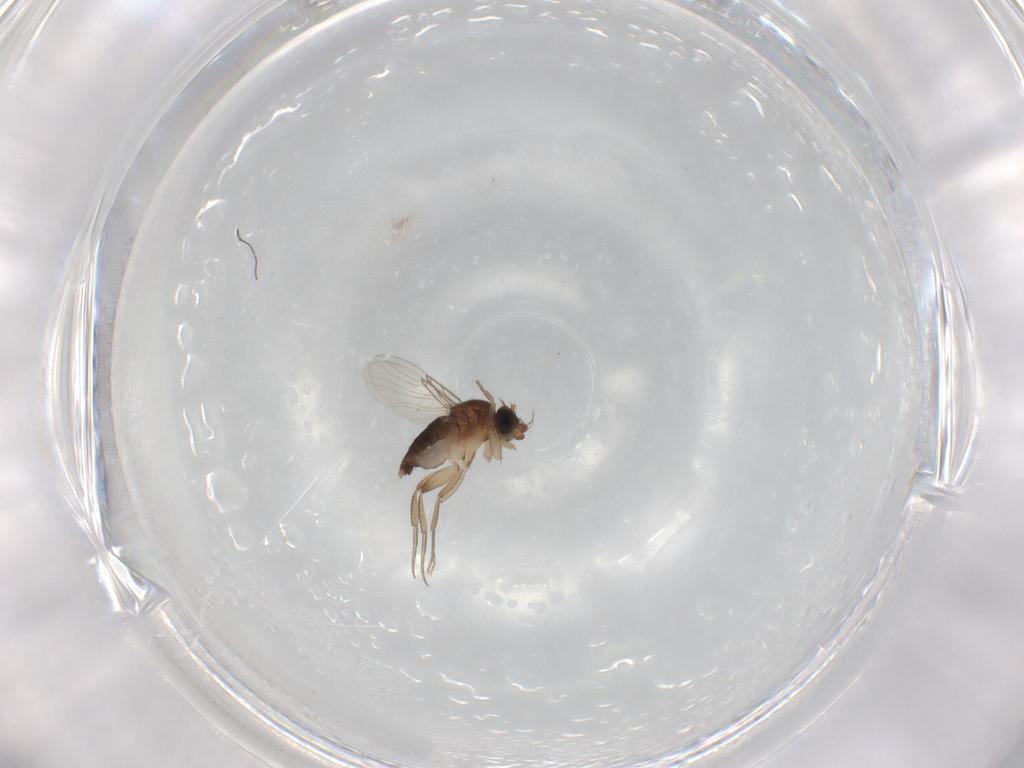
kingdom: Animalia
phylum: Arthropoda
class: Insecta
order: Diptera
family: Phoridae
